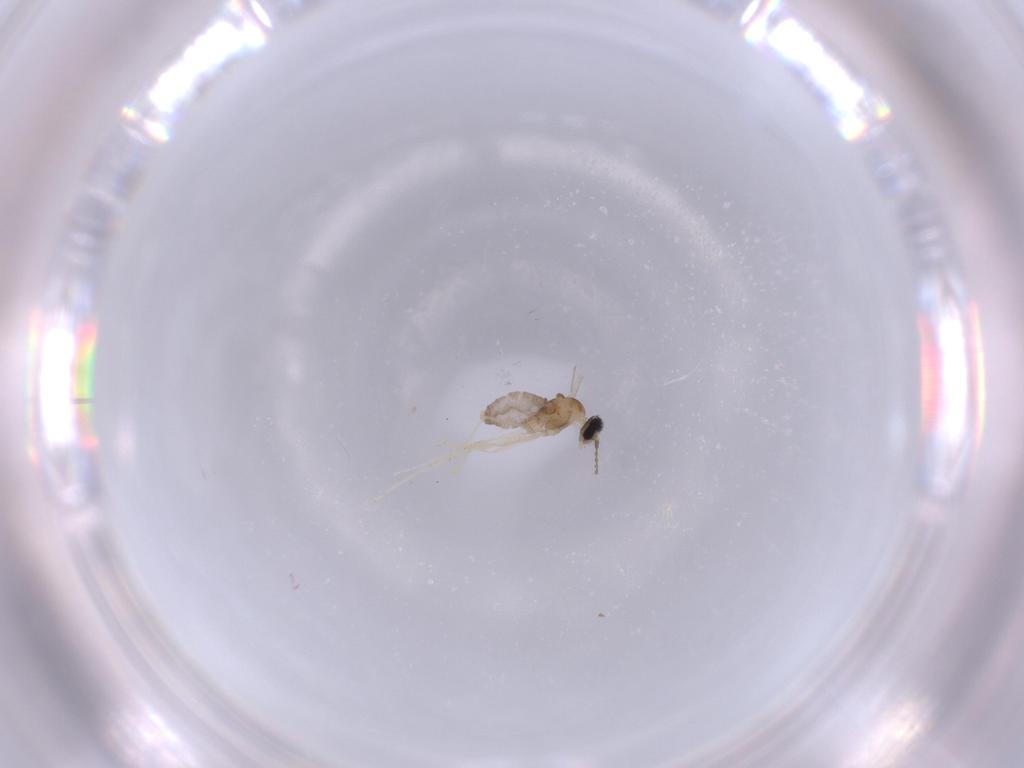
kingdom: Animalia
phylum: Arthropoda
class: Insecta
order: Diptera
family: Cecidomyiidae
